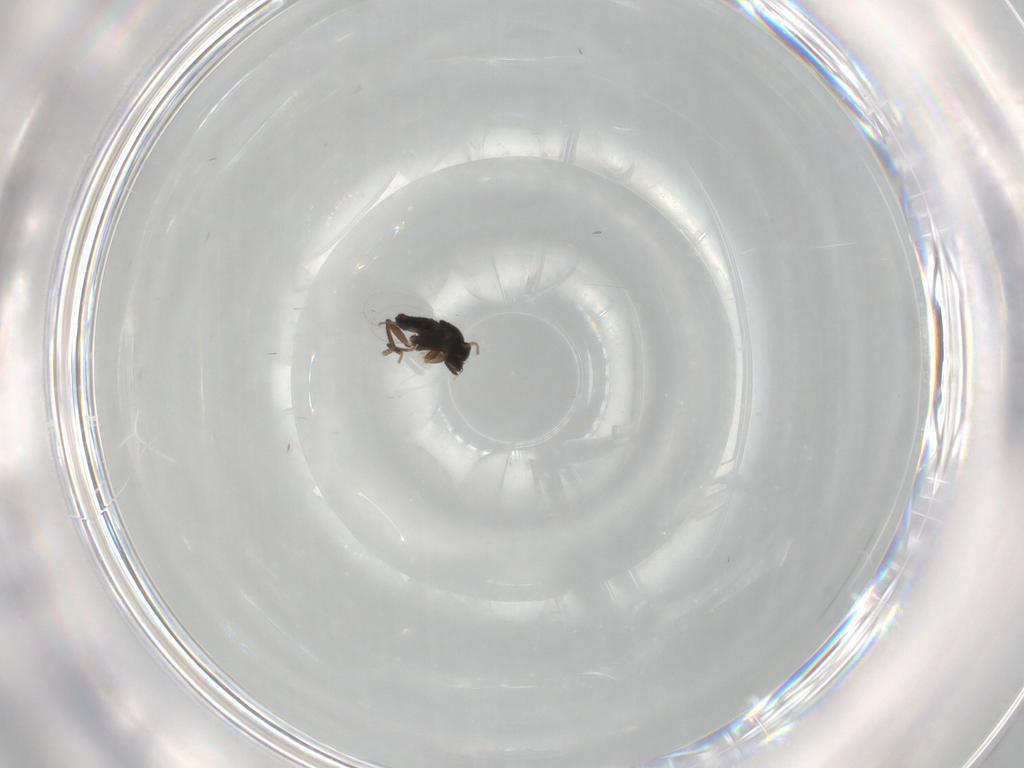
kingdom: Animalia
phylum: Arthropoda
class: Insecta
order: Diptera
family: Phoridae
